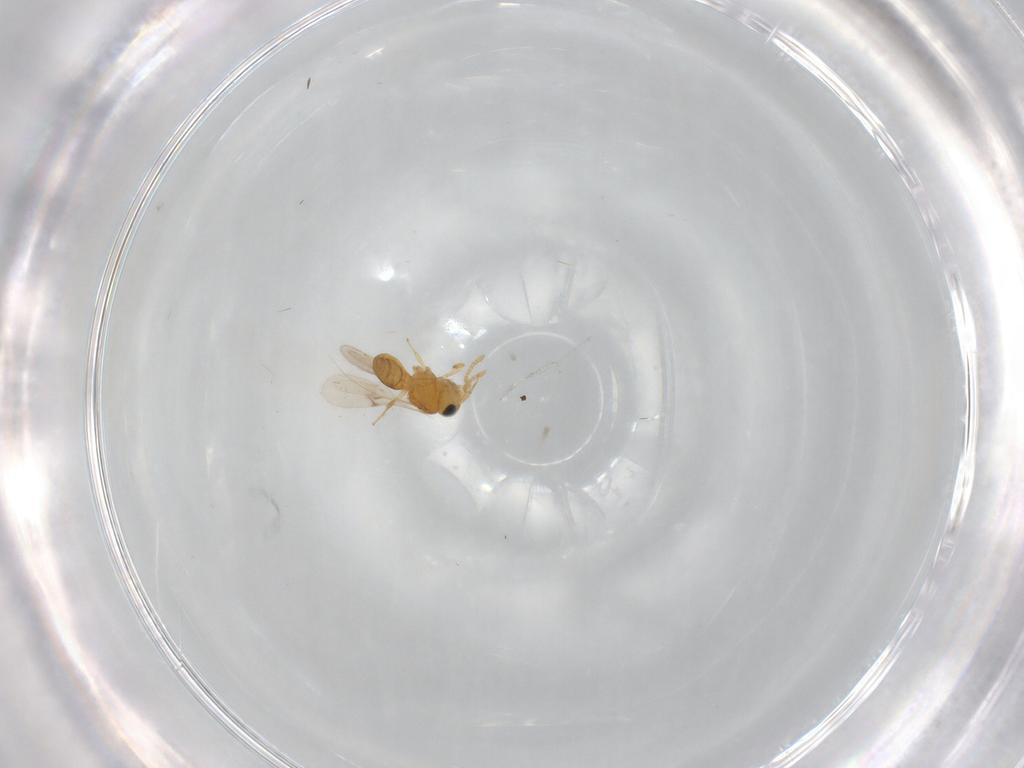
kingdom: Animalia
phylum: Arthropoda
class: Insecta
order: Hymenoptera
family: Scelionidae
